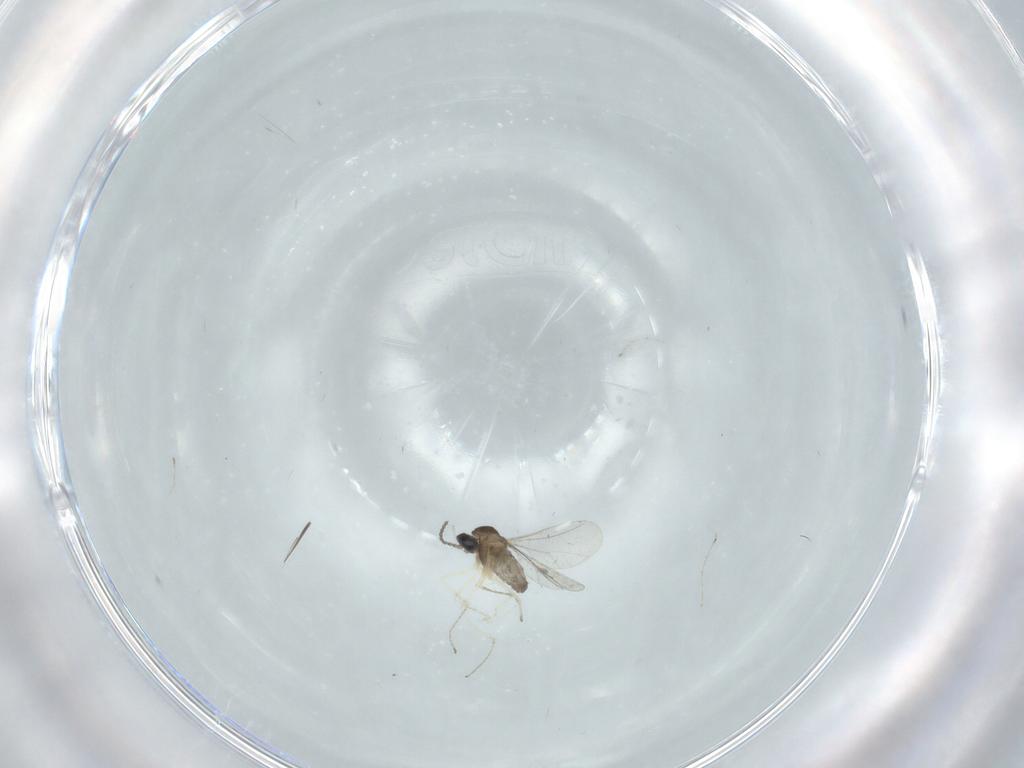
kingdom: Animalia
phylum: Arthropoda
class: Insecta
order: Diptera
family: Cecidomyiidae
